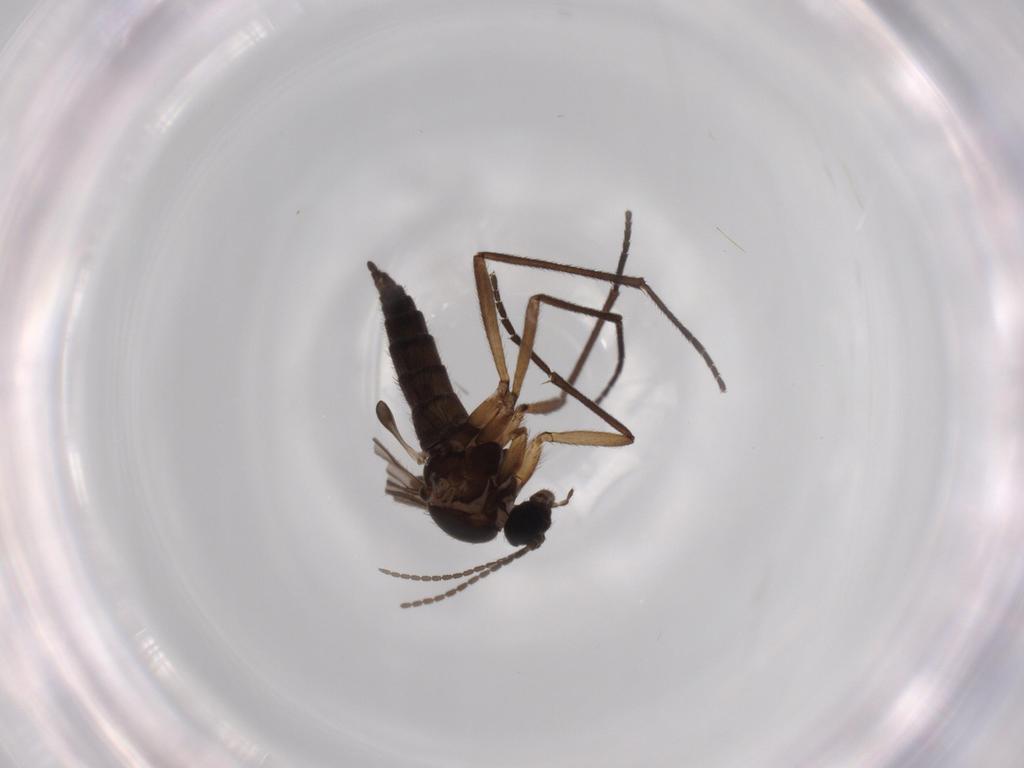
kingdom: Animalia
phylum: Arthropoda
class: Insecta
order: Diptera
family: Sciaridae
